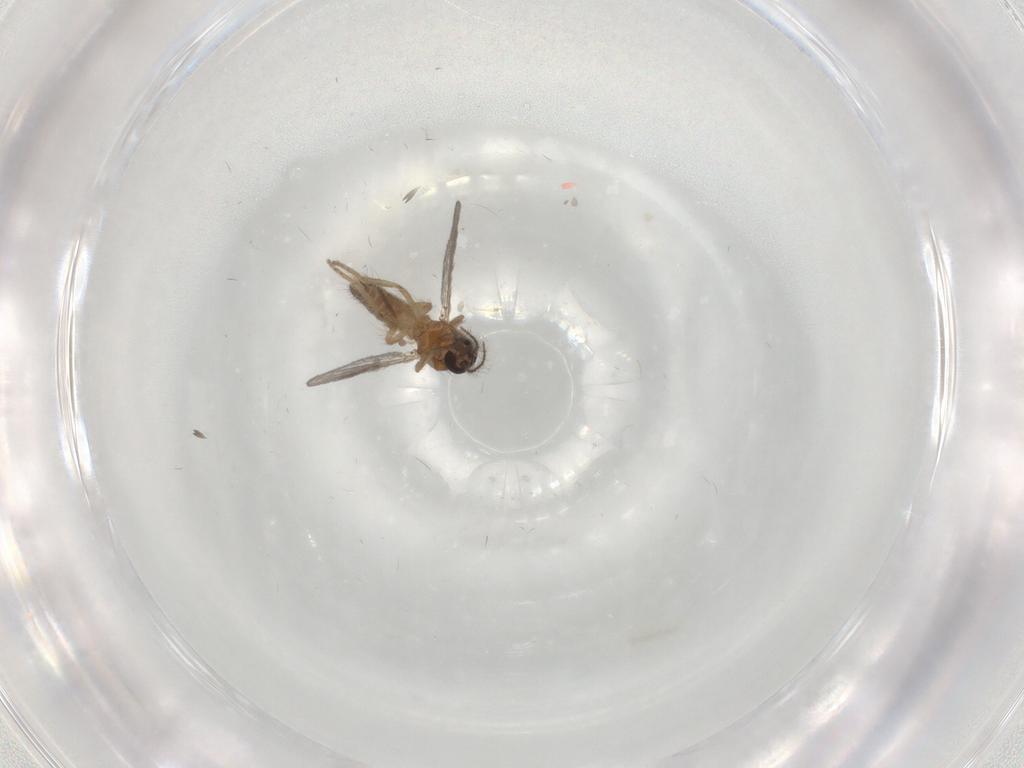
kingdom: Animalia
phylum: Arthropoda
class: Insecta
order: Diptera
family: Ceratopogonidae
